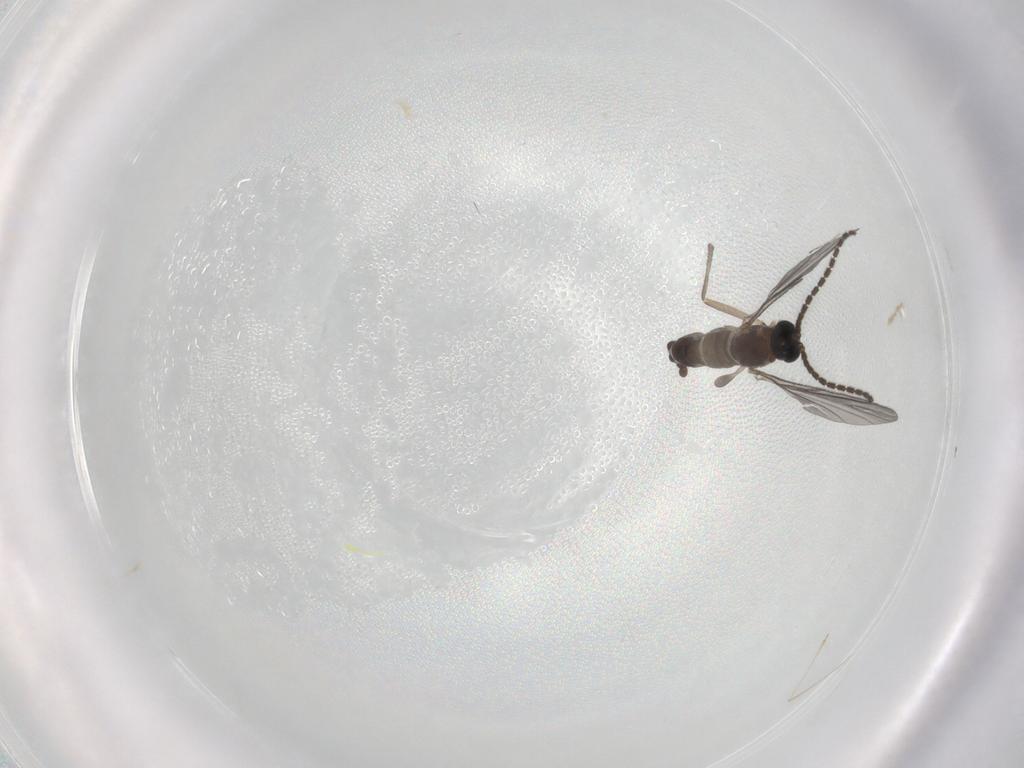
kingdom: Animalia
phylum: Arthropoda
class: Insecta
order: Diptera
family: Sciaridae
